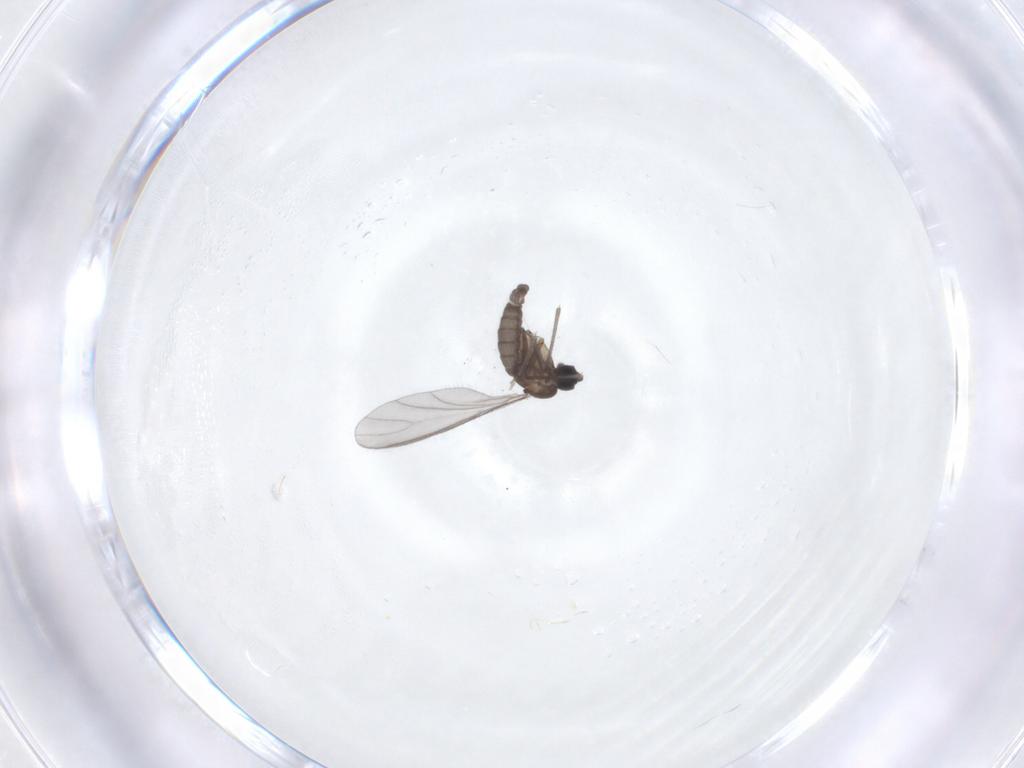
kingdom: Animalia
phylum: Arthropoda
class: Insecta
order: Diptera
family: Sciaridae
